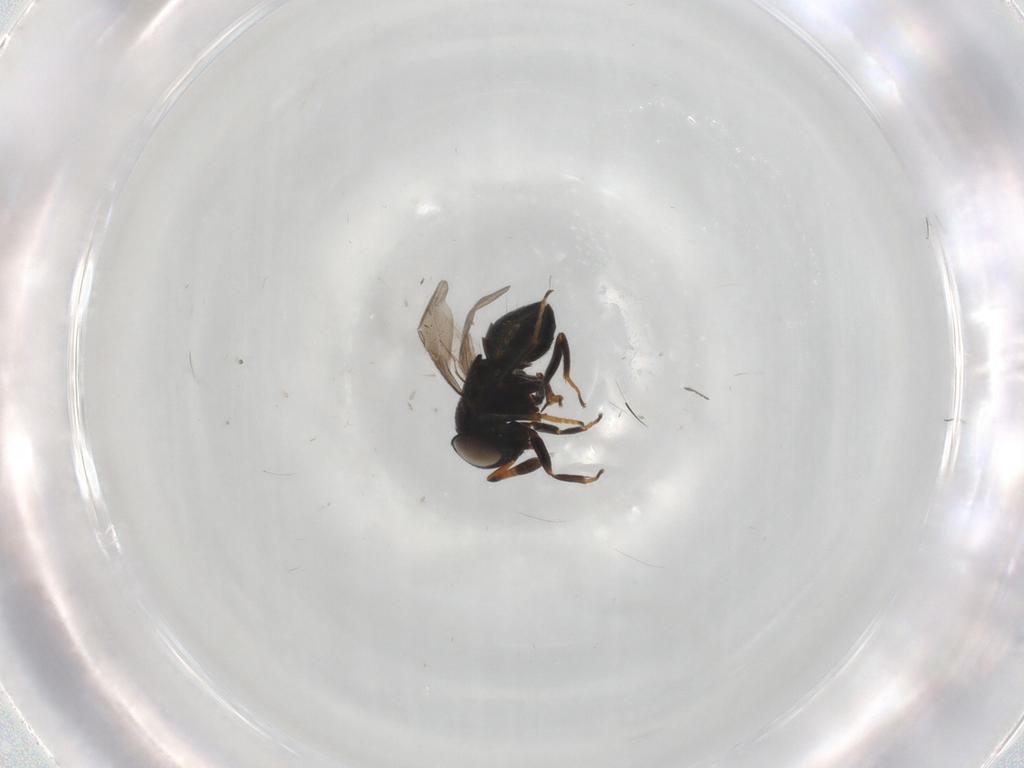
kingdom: Animalia
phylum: Arthropoda
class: Insecta
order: Hymenoptera
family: Encyrtidae
